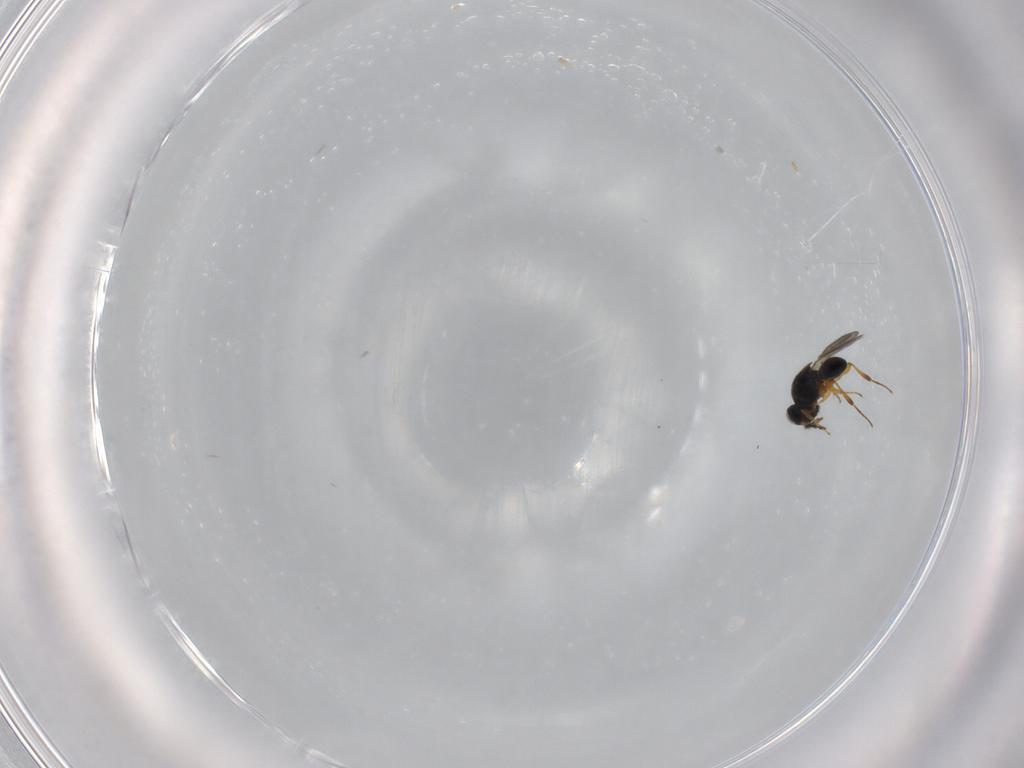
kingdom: Animalia
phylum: Arthropoda
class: Insecta
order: Hymenoptera
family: Platygastridae
